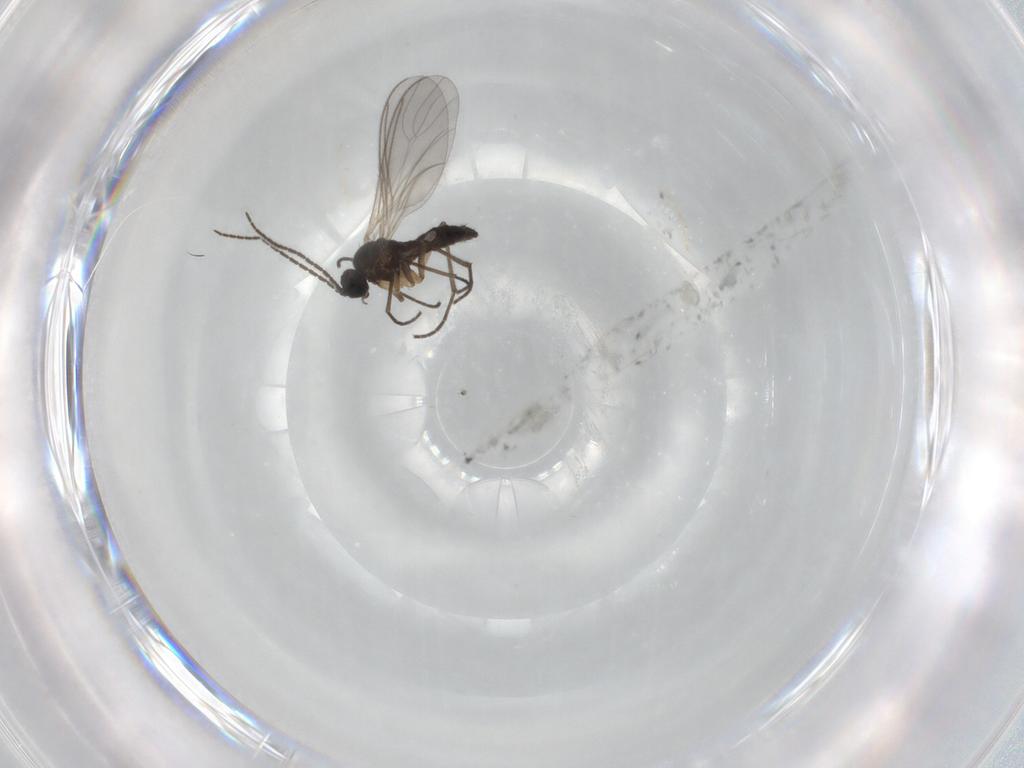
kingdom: Animalia
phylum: Arthropoda
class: Insecta
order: Diptera
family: Sciaridae
